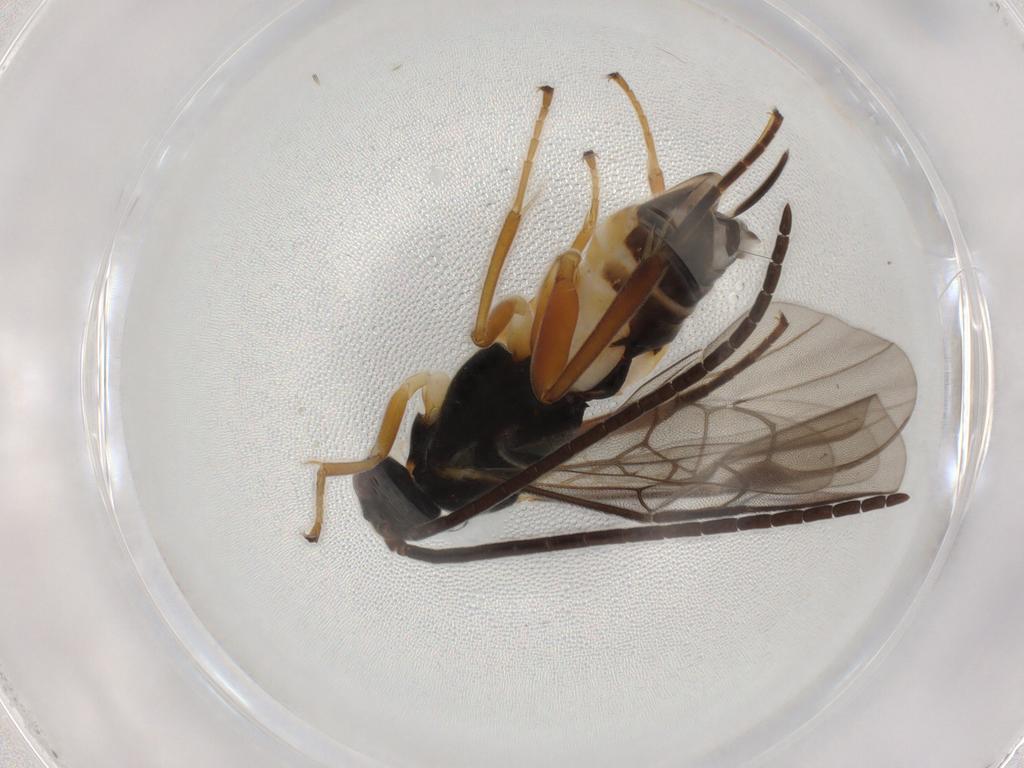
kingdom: Animalia
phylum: Arthropoda
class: Insecta
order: Hymenoptera
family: Braconidae
